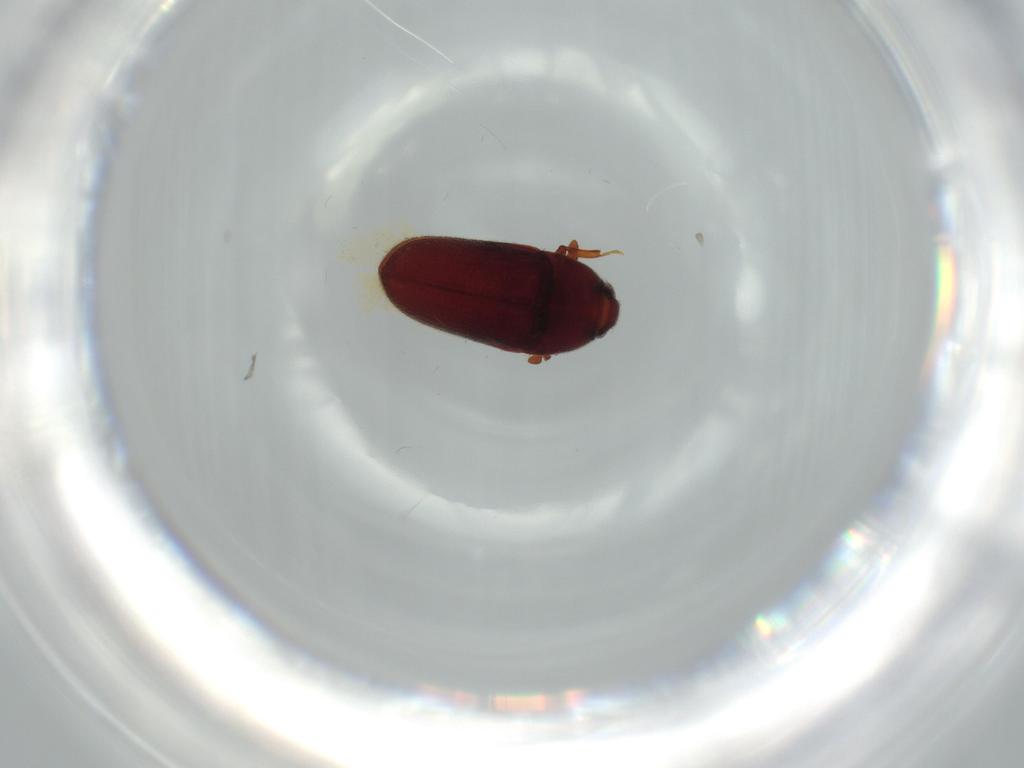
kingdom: Animalia
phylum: Arthropoda
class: Insecta
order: Coleoptera
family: Throscidae
